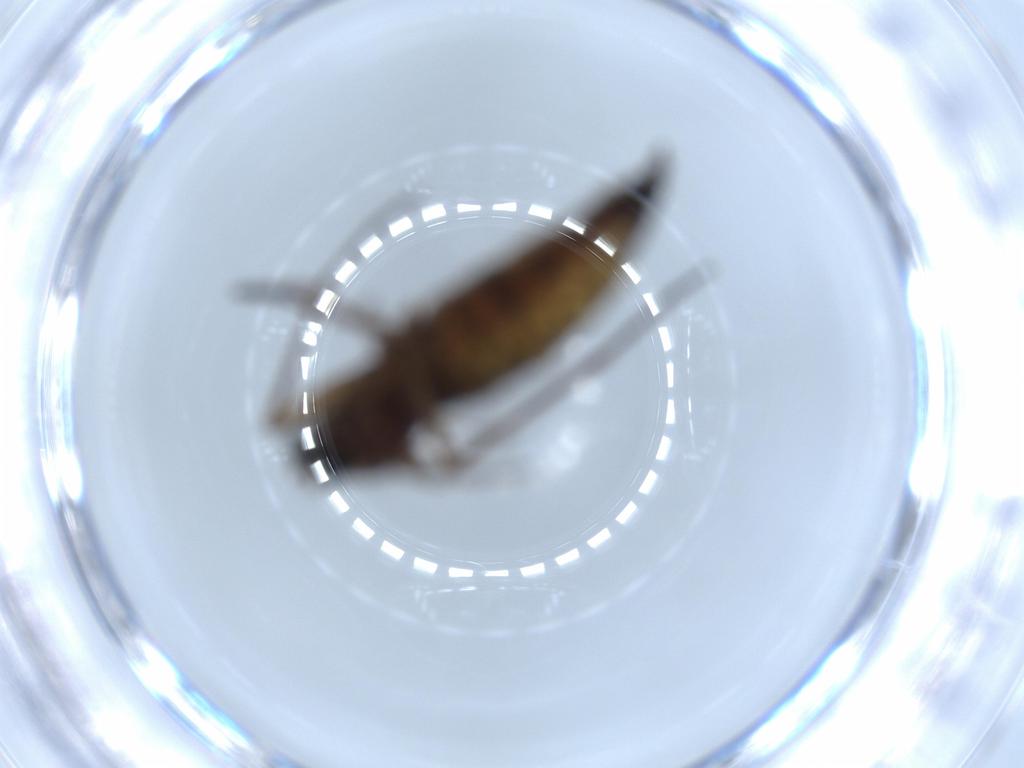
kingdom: Animalia
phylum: Arthropoda
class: Insecta
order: Diptera
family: Sciaridae
